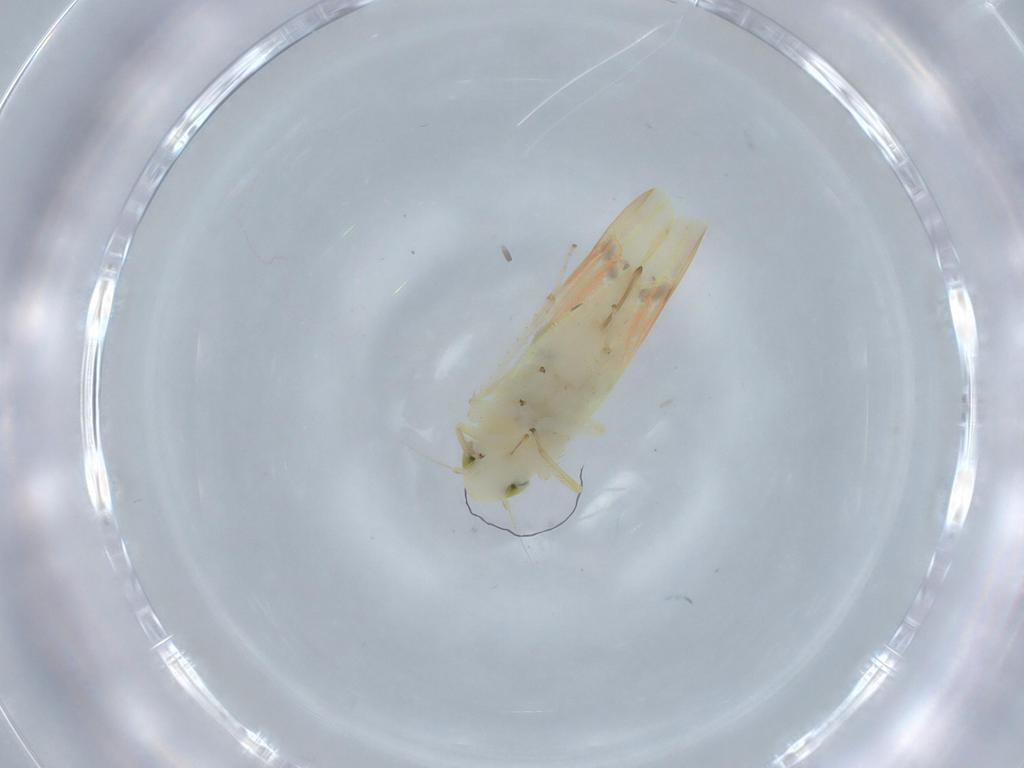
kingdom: Animalia
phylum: Arthropoda
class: Insecta
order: Hemiptera
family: Cicadellidae
